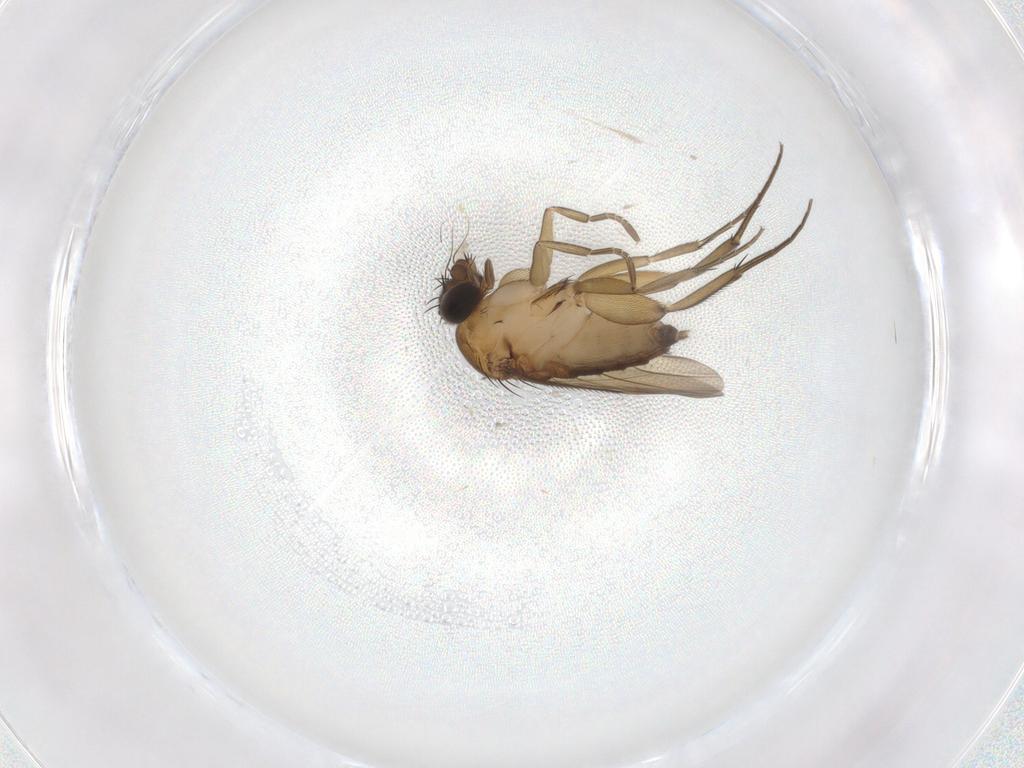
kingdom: Animalia
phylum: Arthropoda
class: Insecta
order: Diptera
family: Phoridae
